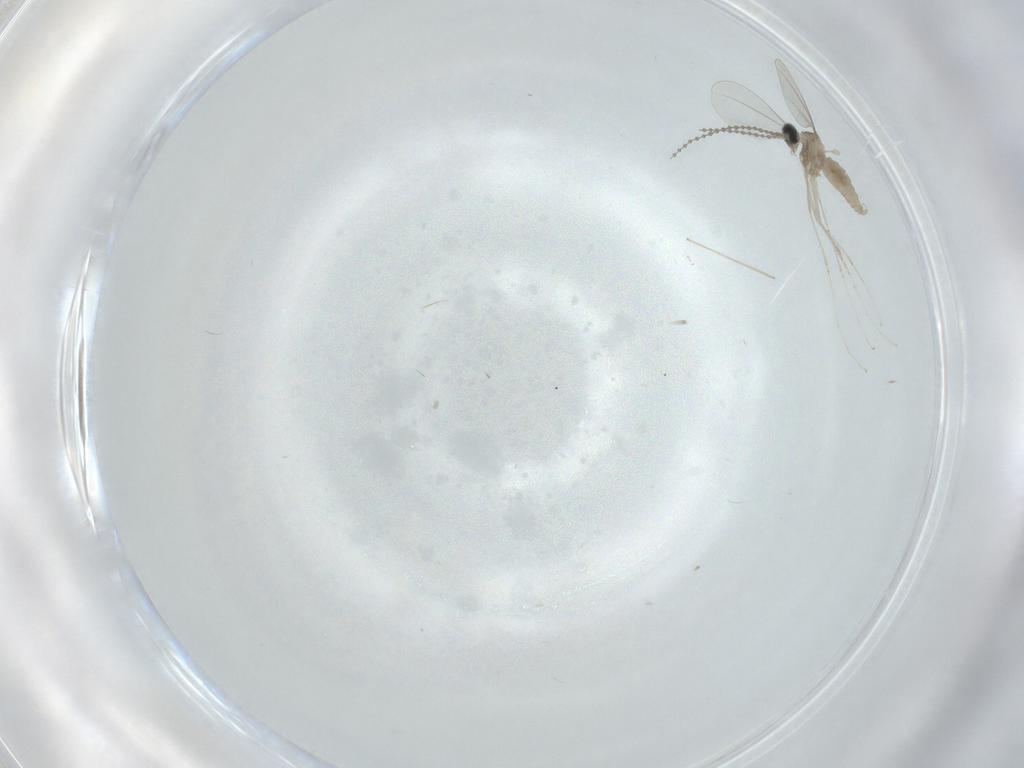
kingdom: Animalia
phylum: Arthropoda
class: Insecta
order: Diptera
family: Cecidomyiidae
